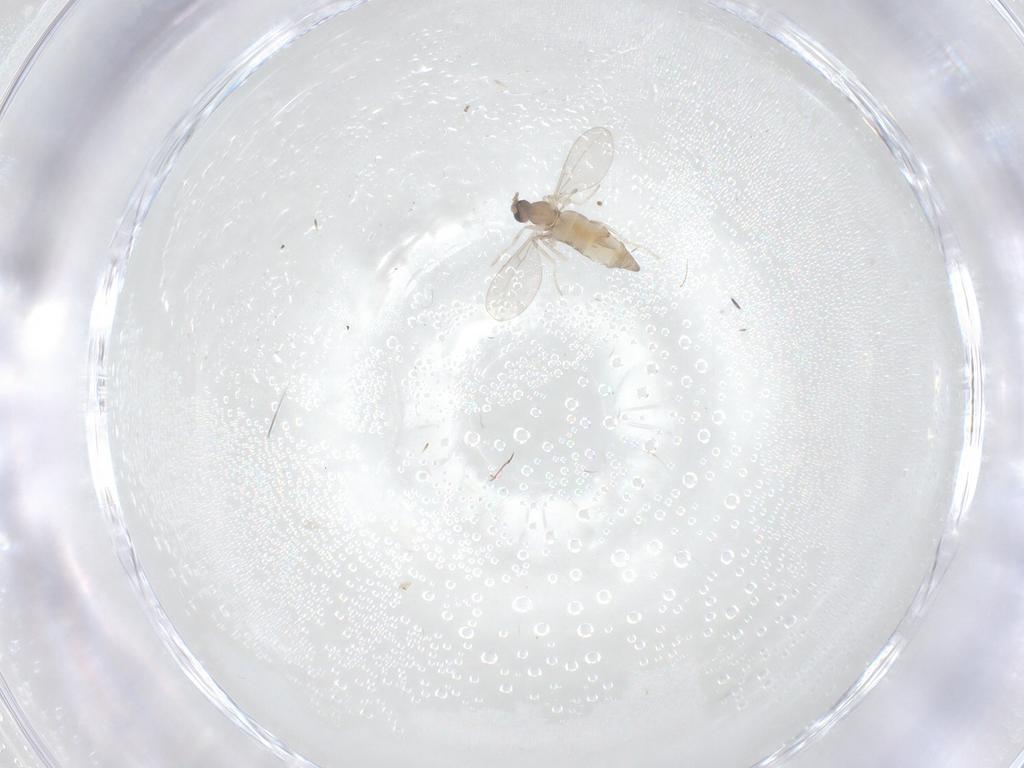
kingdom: Animalia
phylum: Arthropoda
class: Insecta
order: Diptera
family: Cecidomyiidae
